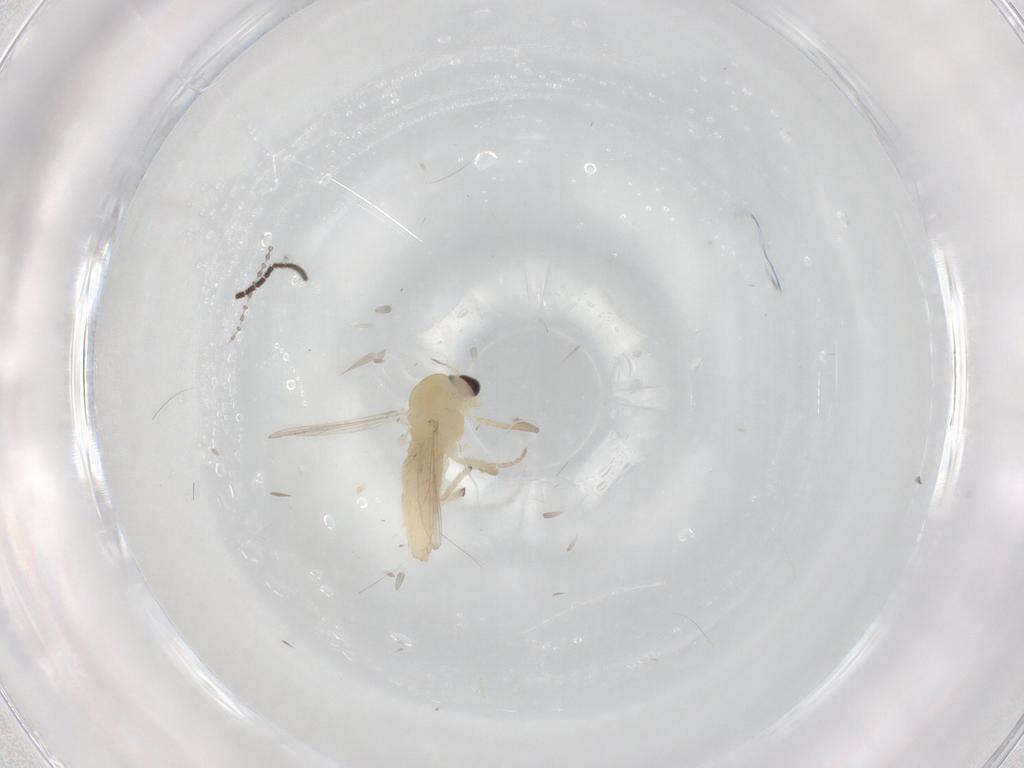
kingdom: Animalia
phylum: Arthropoda
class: Insecta
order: Diptera
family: Chironomidae
